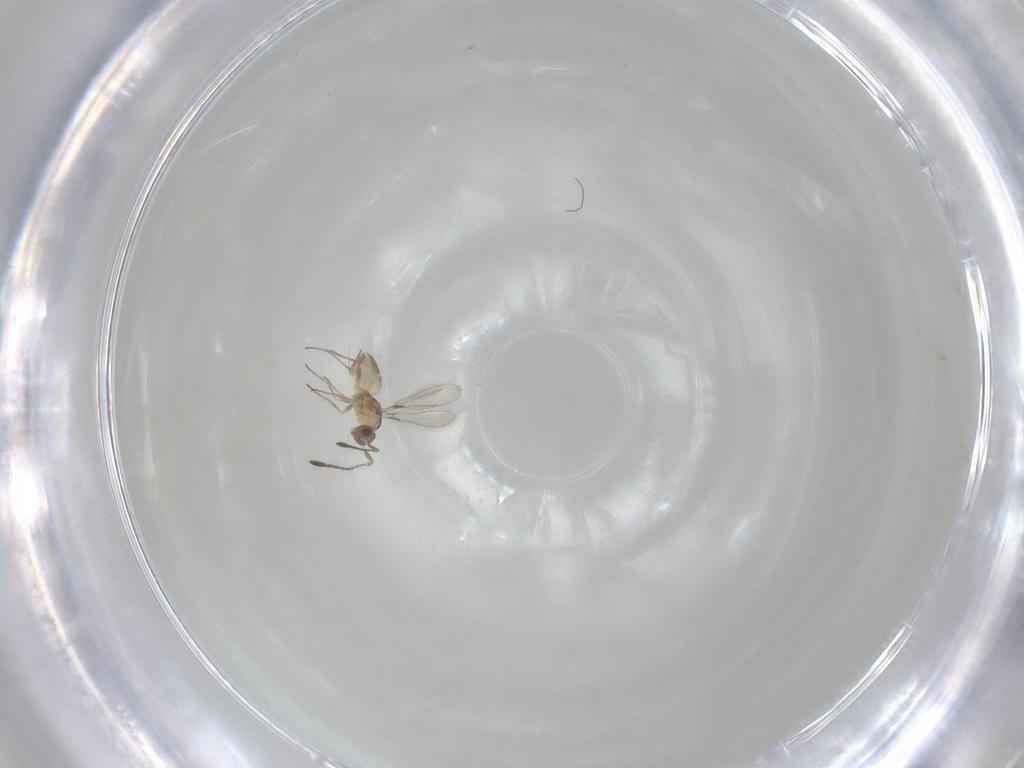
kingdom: Animalia
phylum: Arthropoda
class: Insecta
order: Hymenoptera
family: Mymaridae
